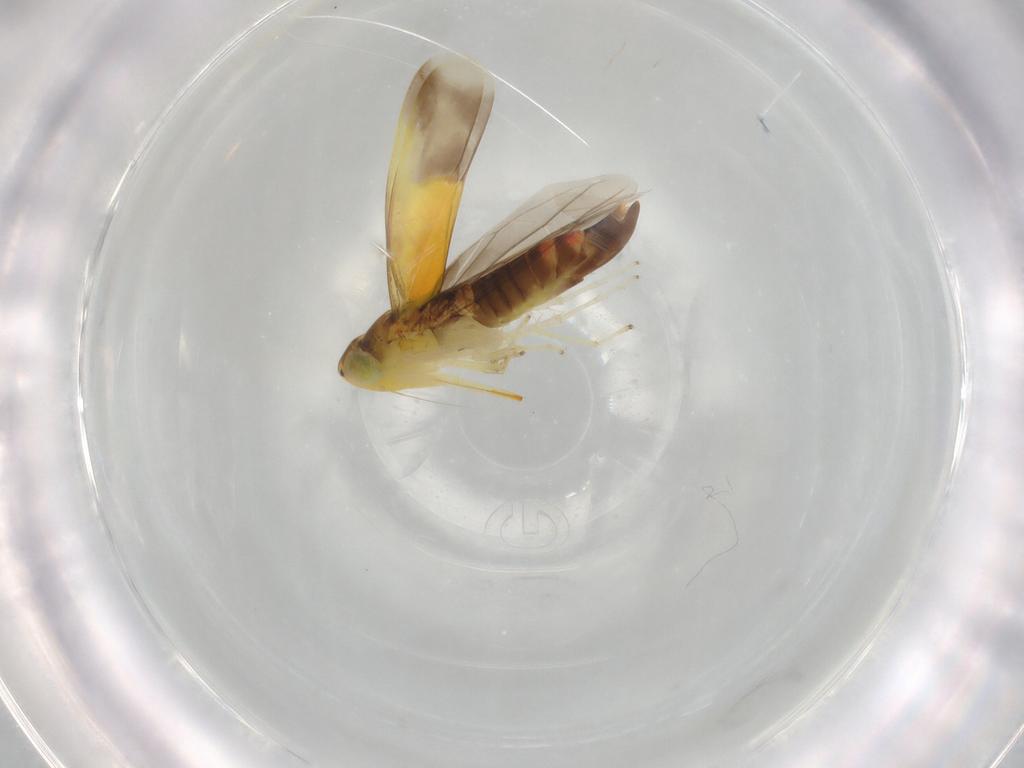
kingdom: Animalia
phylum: Arthropoda
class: Insecta
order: Hemiptera
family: Cicadellidae
